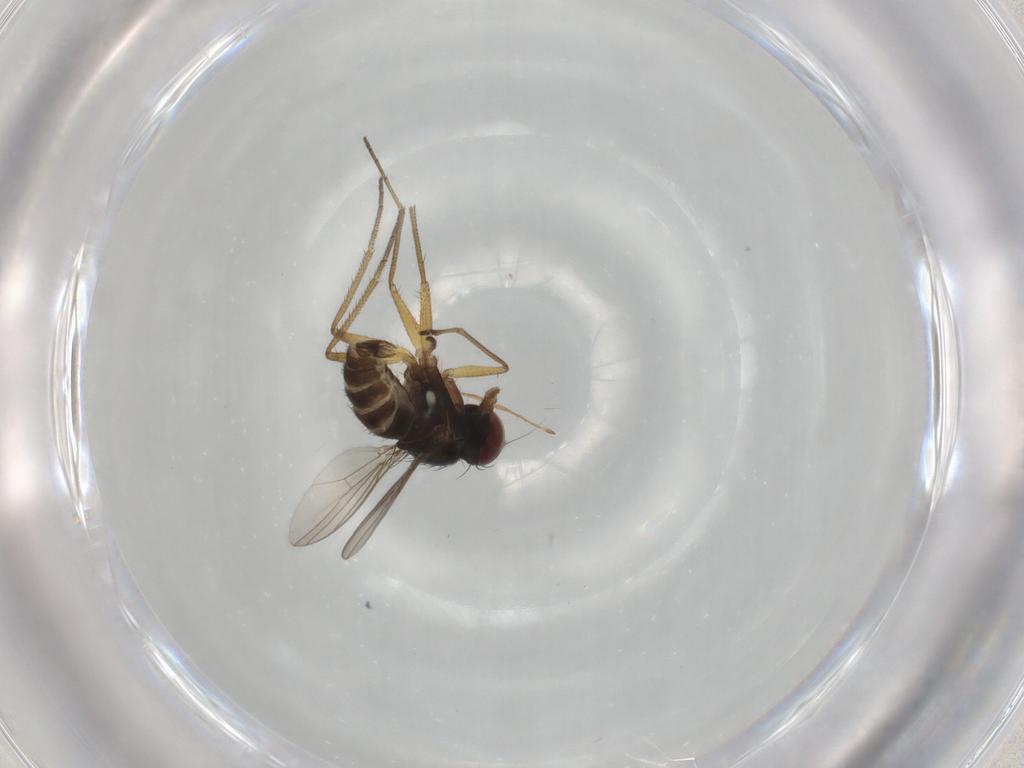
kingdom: Animalia
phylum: Arthropoda
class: Insecta
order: Diptera
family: Dolichopodidae
